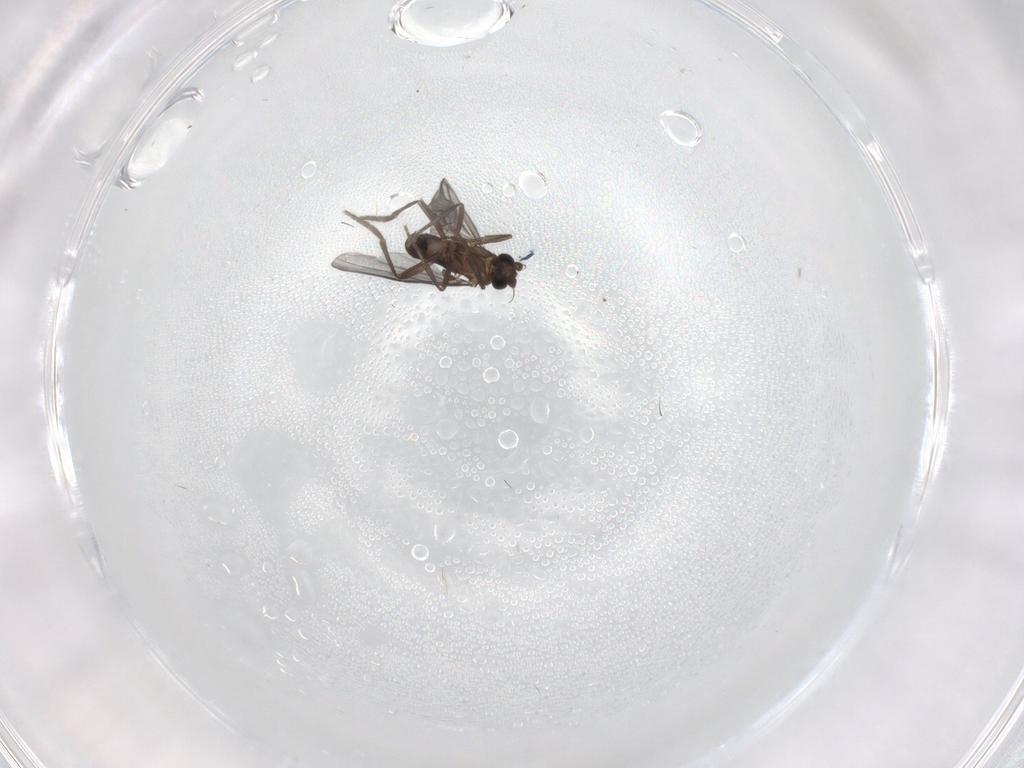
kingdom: Animalia
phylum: Arthropoda
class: Insecta
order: Diptera
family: Phoridae
